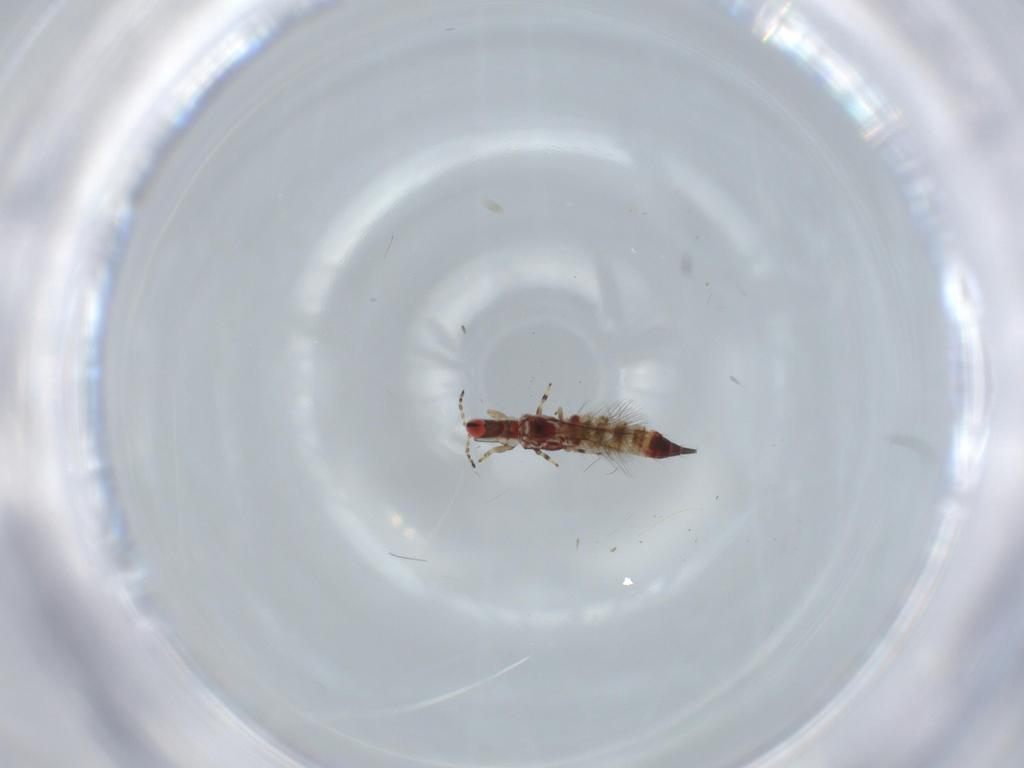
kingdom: Animalia
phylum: Arthropoda
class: Insecta
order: Thysanoptera
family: Phlaeothripidae
